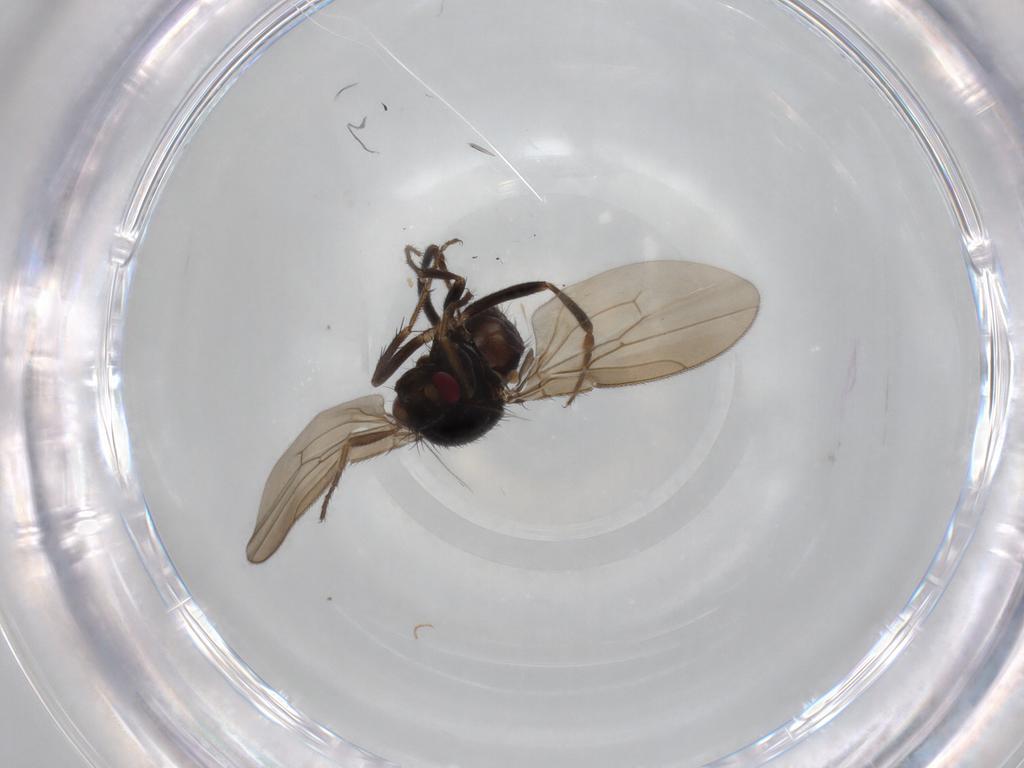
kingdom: Animalia
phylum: Arthropoda
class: Insecta
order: Diptera
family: Sphaeroceridae
